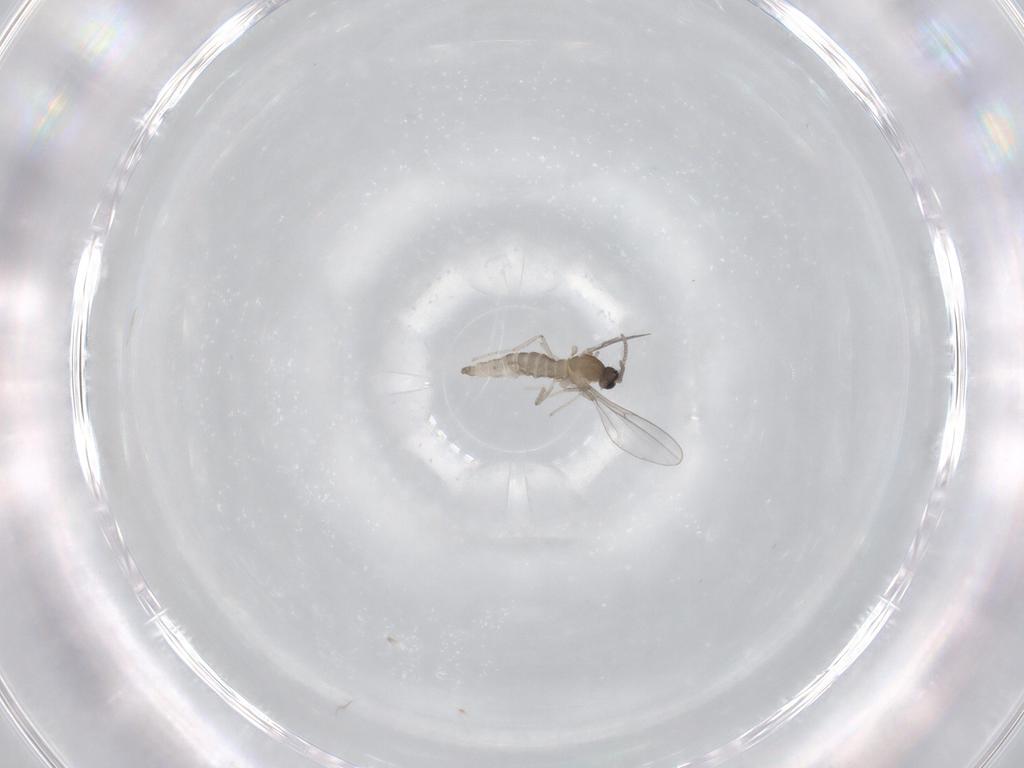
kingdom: Animalia
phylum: Arthropoda
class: Insecta
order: Diptera
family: Cecidomyiidae
